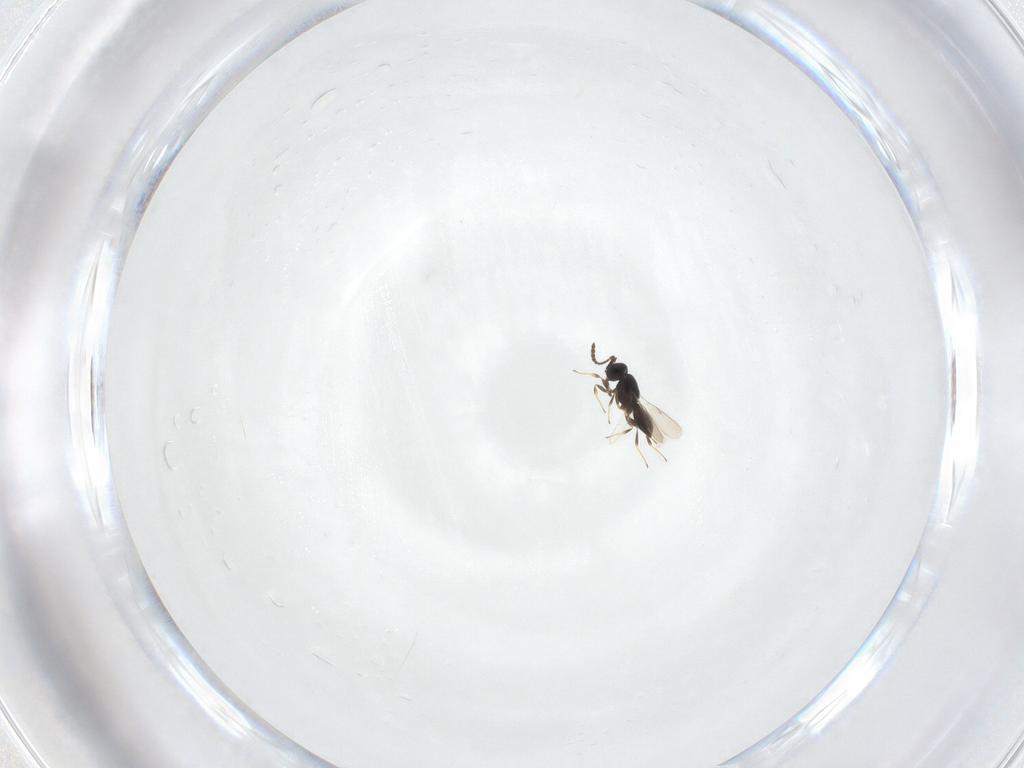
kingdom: Animalia
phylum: Arthropoda
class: Insecta
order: Hymenoptera
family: Scelionidae
